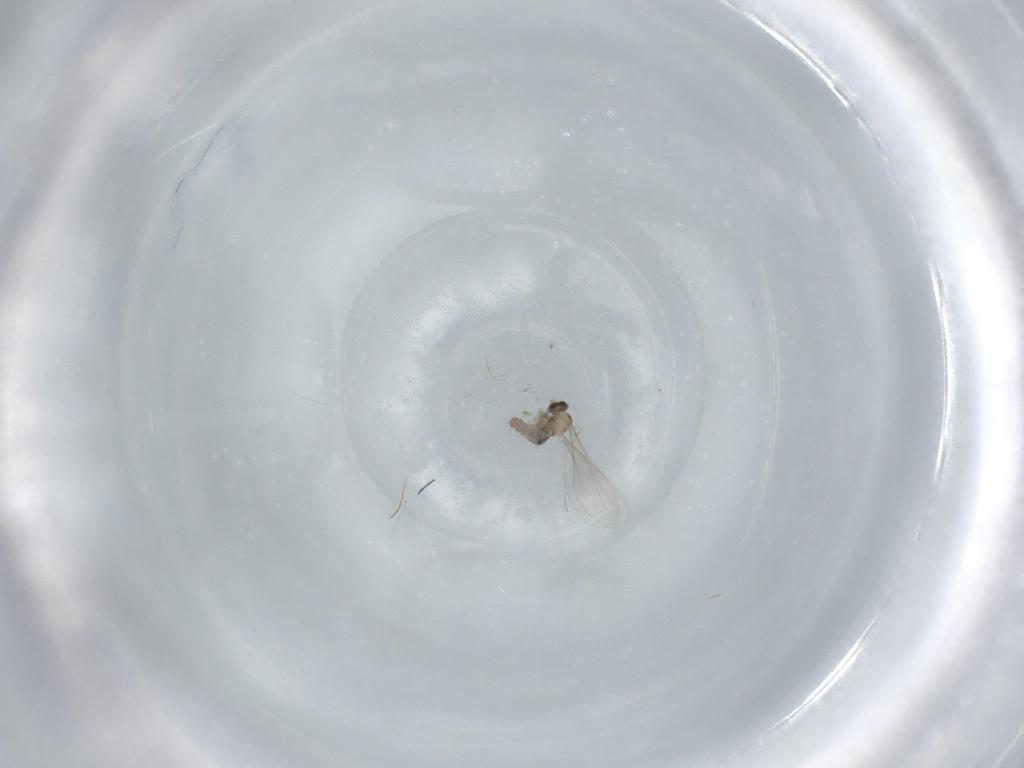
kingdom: Animalia
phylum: Arthropoda
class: Insecta
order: Diptera
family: Cecidomyiidae
